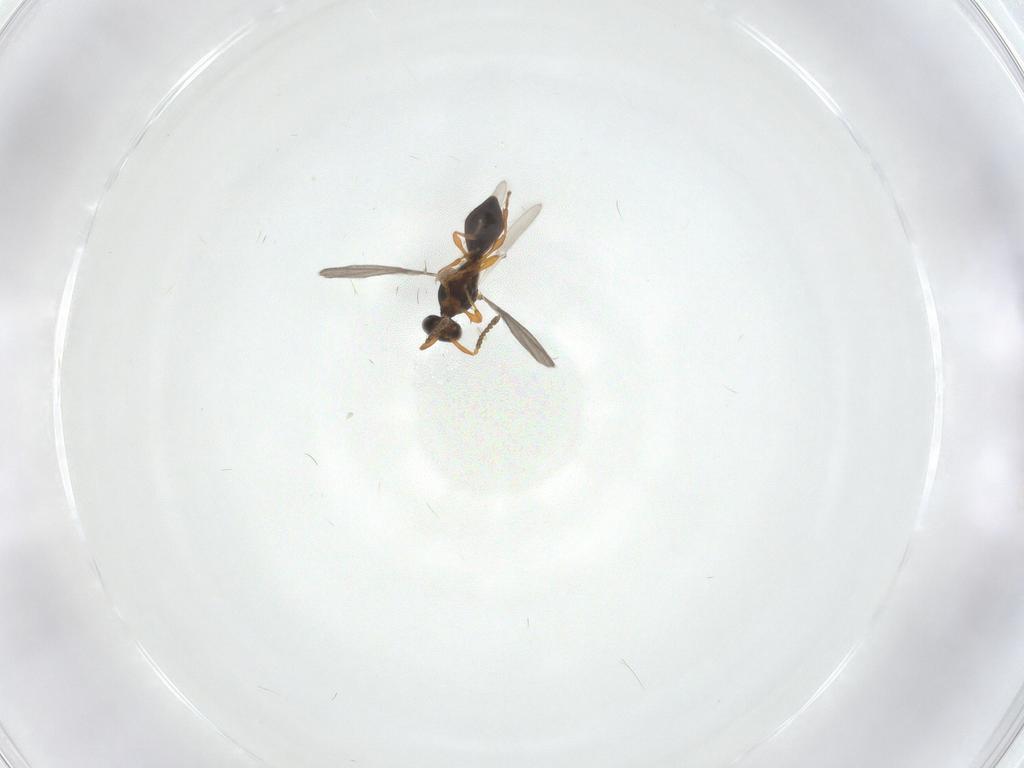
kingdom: Animalia
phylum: Arthropoda
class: Insecta
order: Hymenoptera
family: Platygastridae
